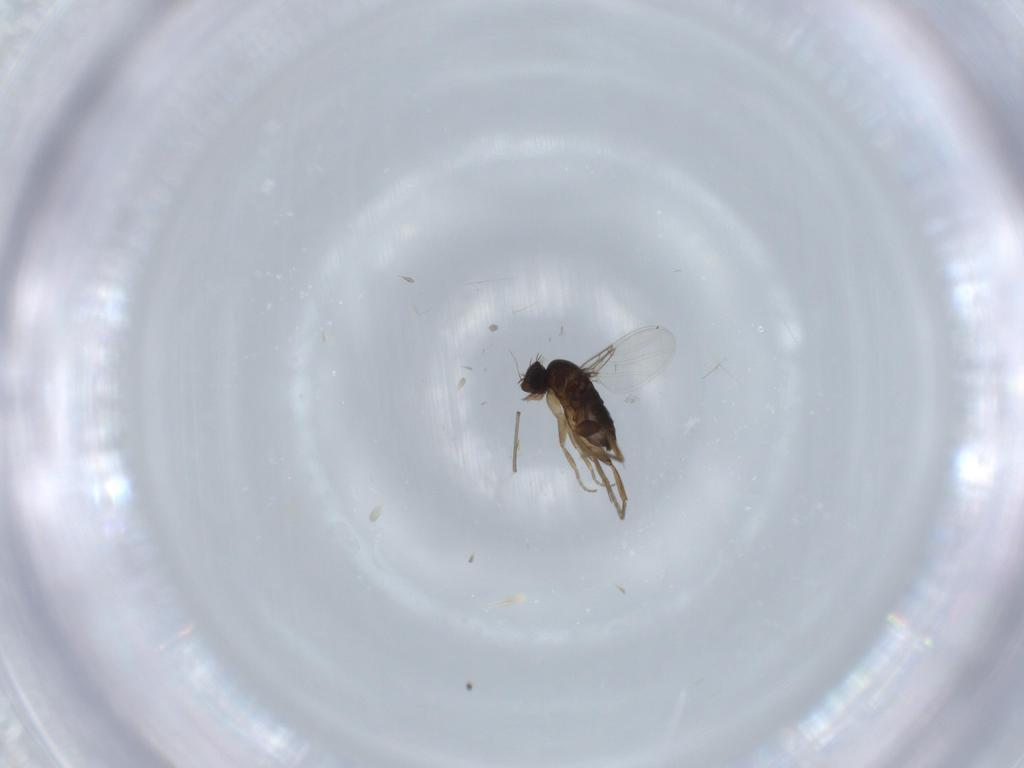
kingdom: Animalia
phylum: Arthropoda
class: Insecta
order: Diptera
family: Phoridae
